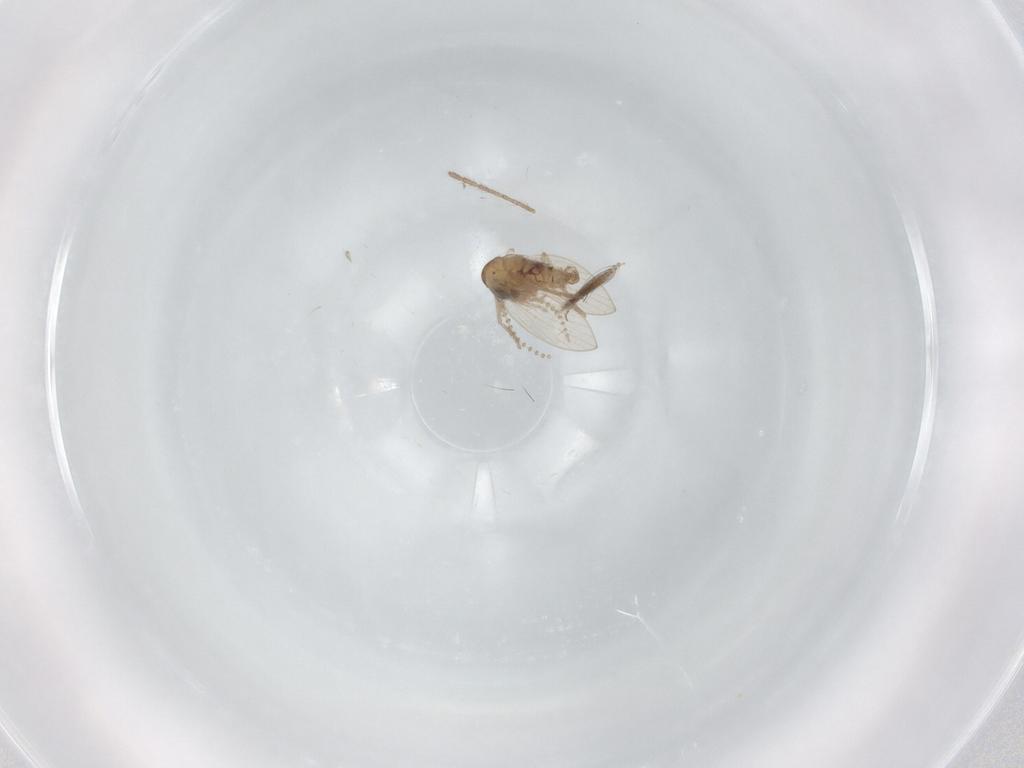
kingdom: Animalia
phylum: Arthropoda
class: Insecta
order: Diptera
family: Psychodidae
